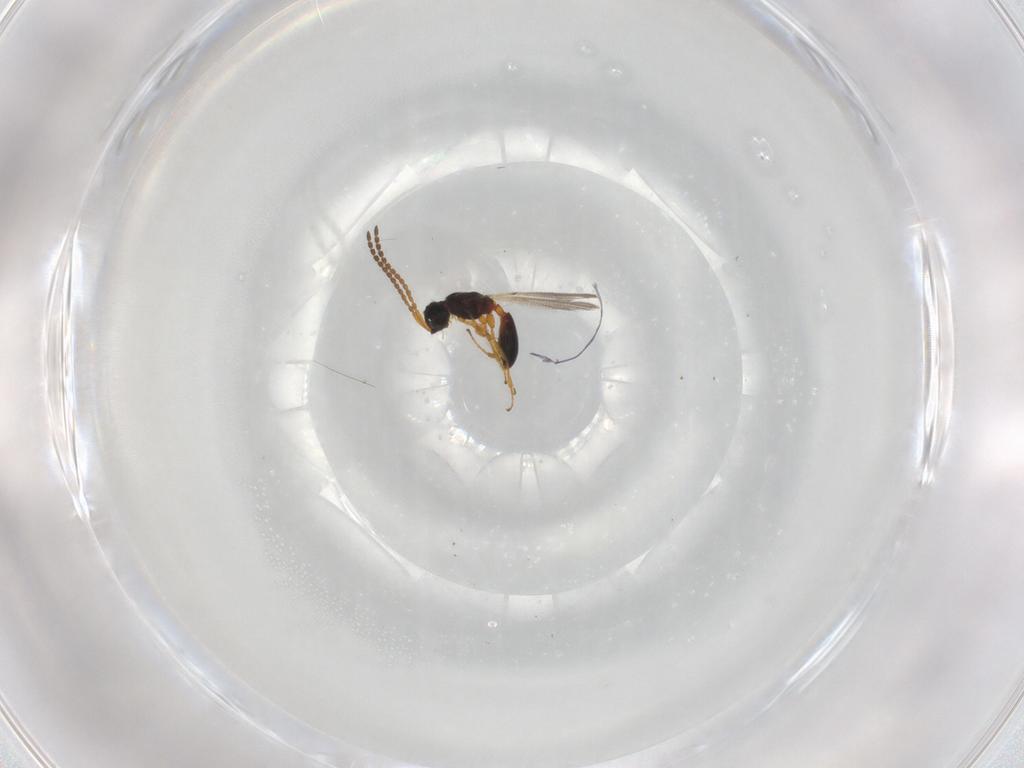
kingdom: Animalia
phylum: Arthropoda
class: Insecta
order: Hymenoptera
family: Diapriidae
